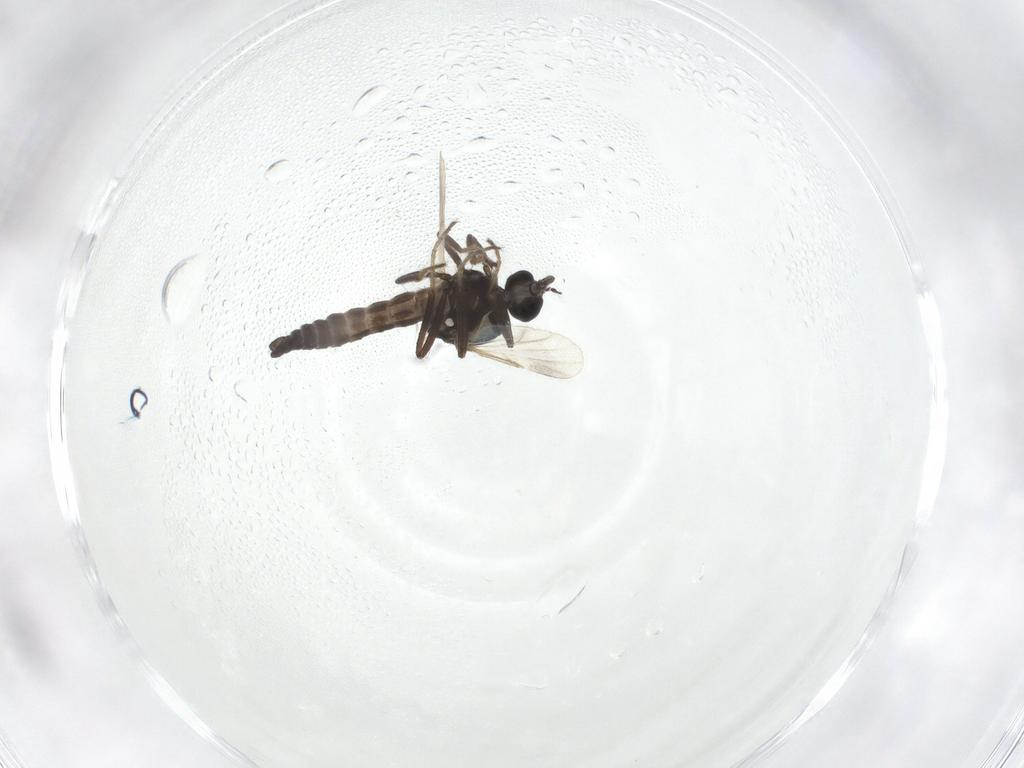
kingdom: Animalia
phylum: Arthropoda
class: Insecta
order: Diptera
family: Ceratopogonidae
